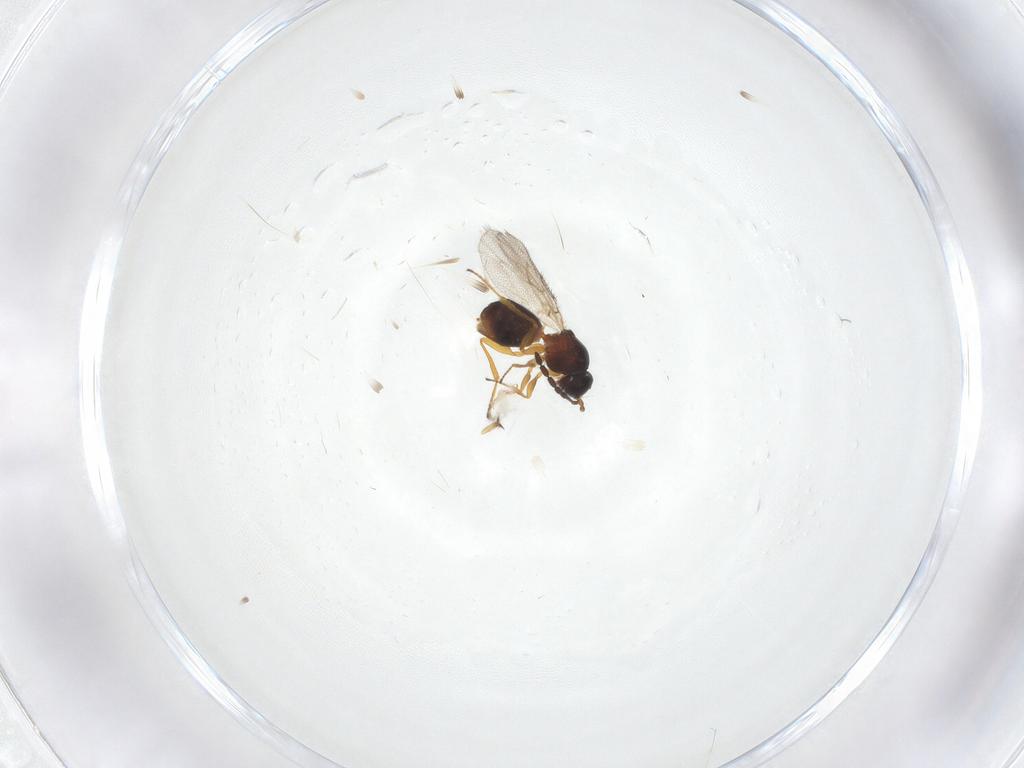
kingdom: Animalia
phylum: Arthropoda
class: Insecta
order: Hymenoptera
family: Figitidae
